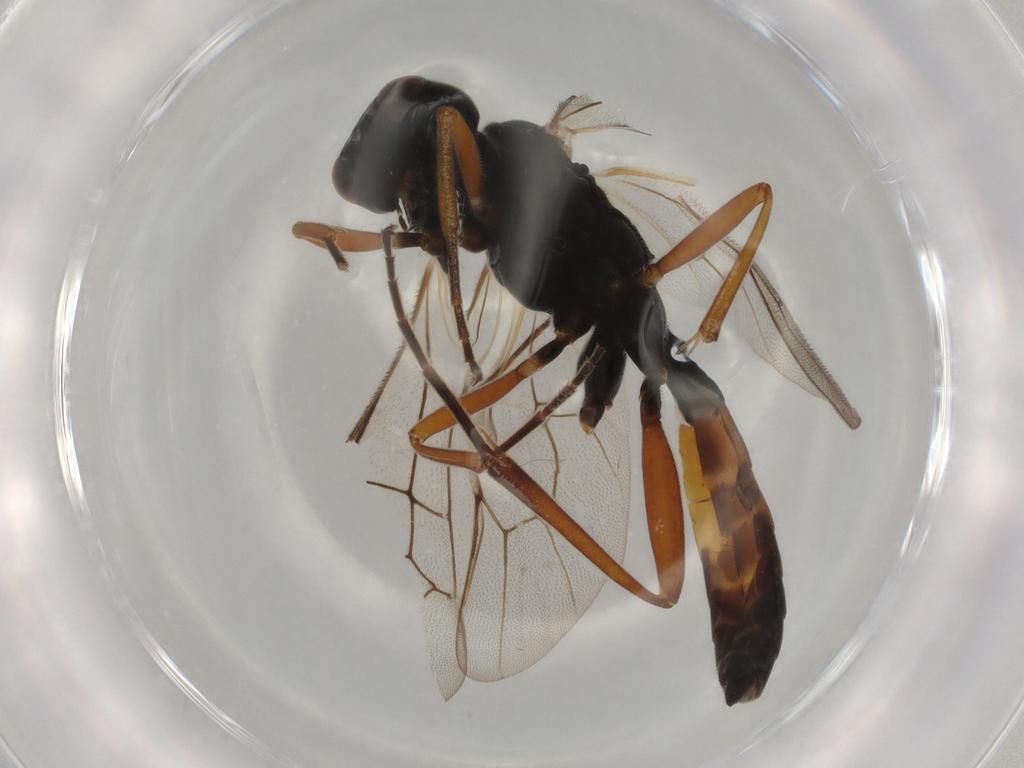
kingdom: Animalia
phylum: Arthropoda
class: Insecta
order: Hymenoptera
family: Formicidae
